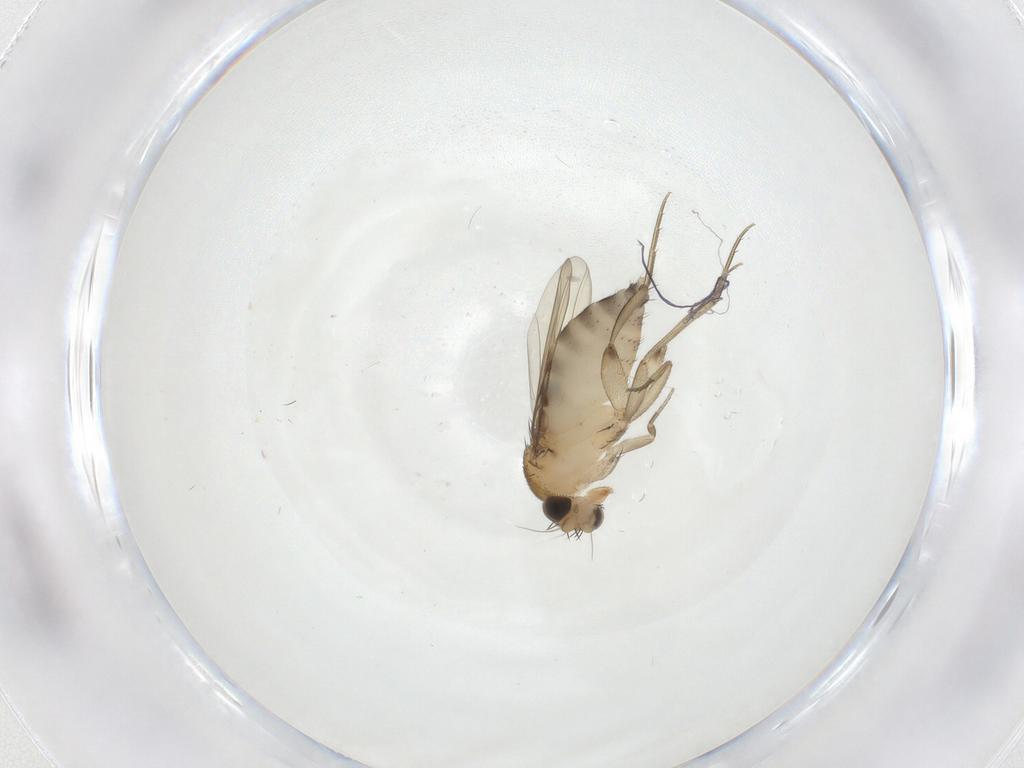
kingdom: Animalia
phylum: Arthropoda
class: Insecta
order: Diptera
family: Phoridae
